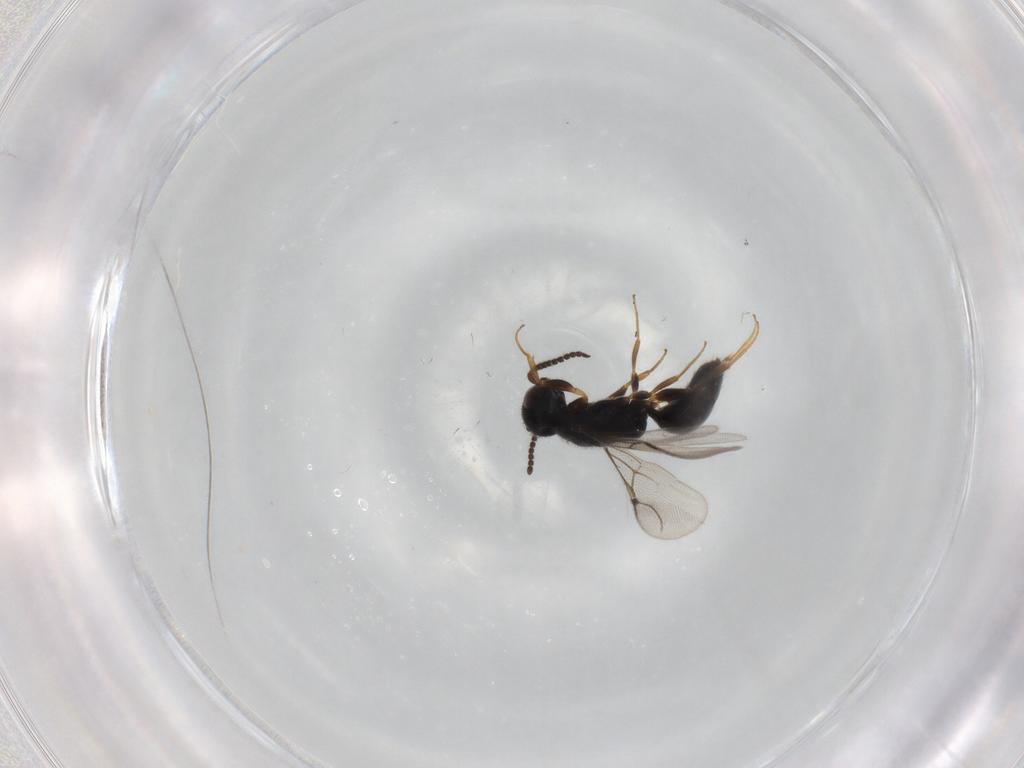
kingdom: Animalia
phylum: Arthropoda
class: Insecta
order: Hymenoptera
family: Bethylidae
